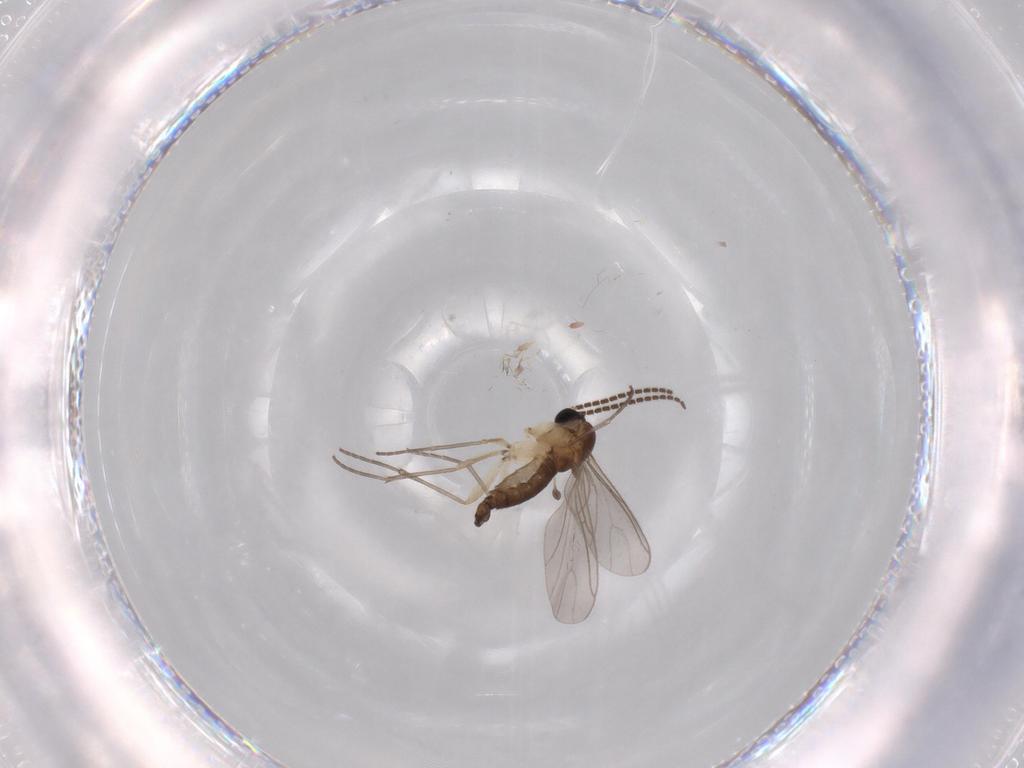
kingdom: Animalia
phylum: Arthropoda
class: Insecta
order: Diptera
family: Sciaridae
